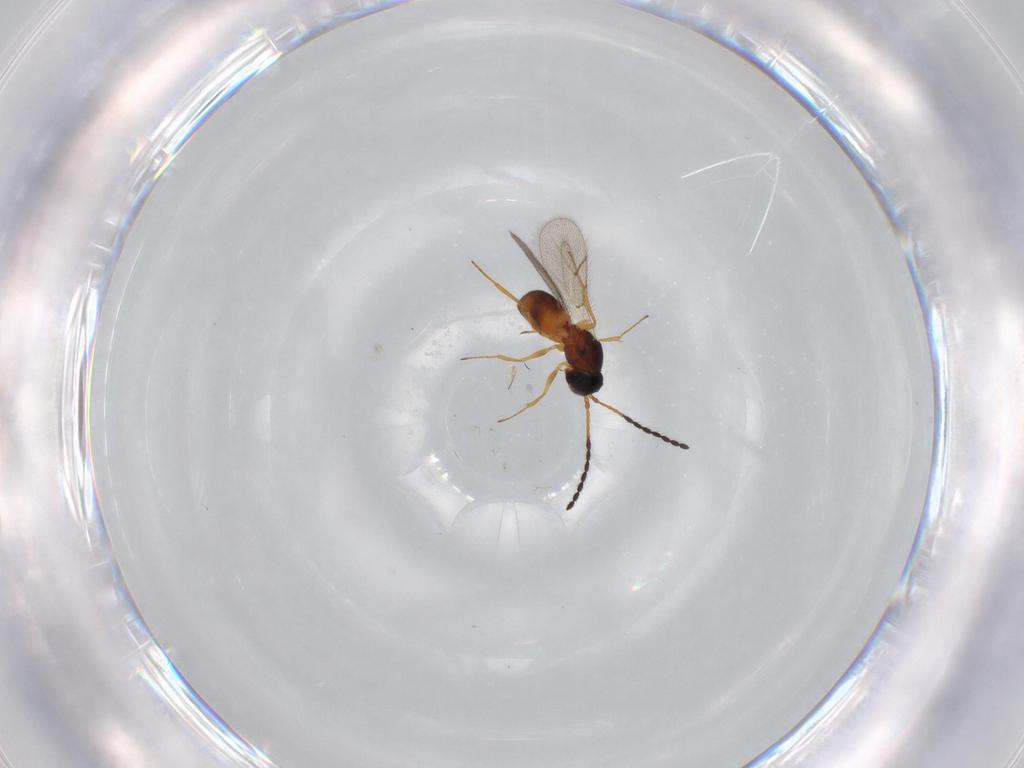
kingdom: Animalia
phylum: Arthropoda
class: Insecta
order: Hymenoptera
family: Figitidae
